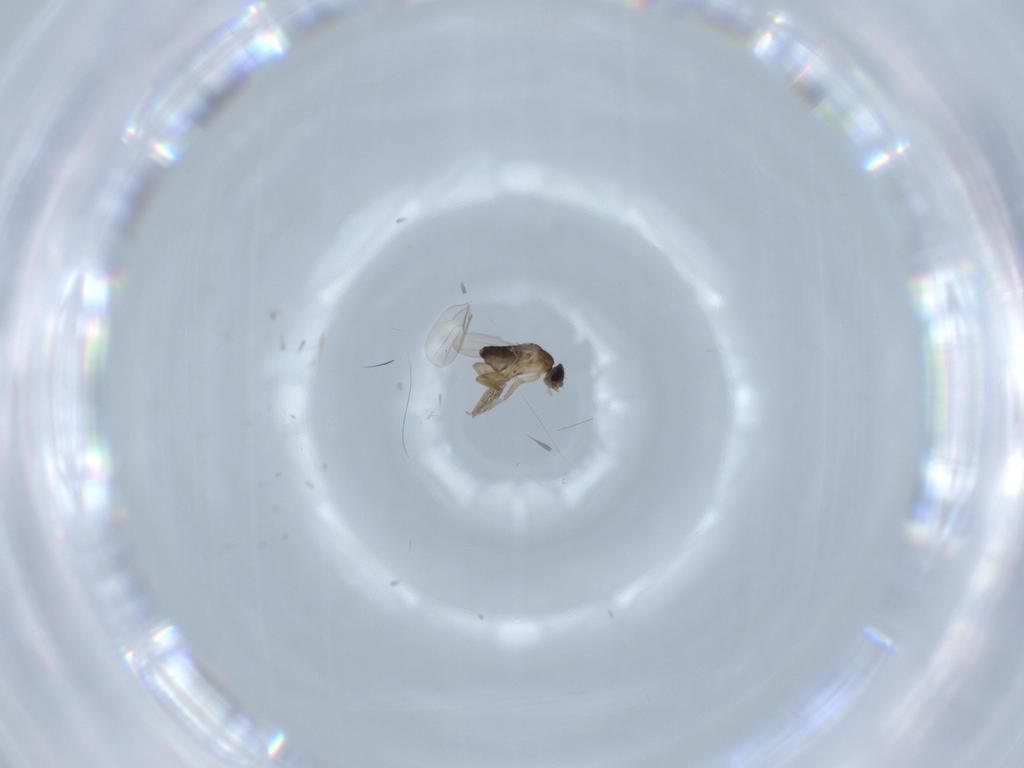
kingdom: Animalia
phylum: Arthropoda
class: Insecta
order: Diptera
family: Phoridae
